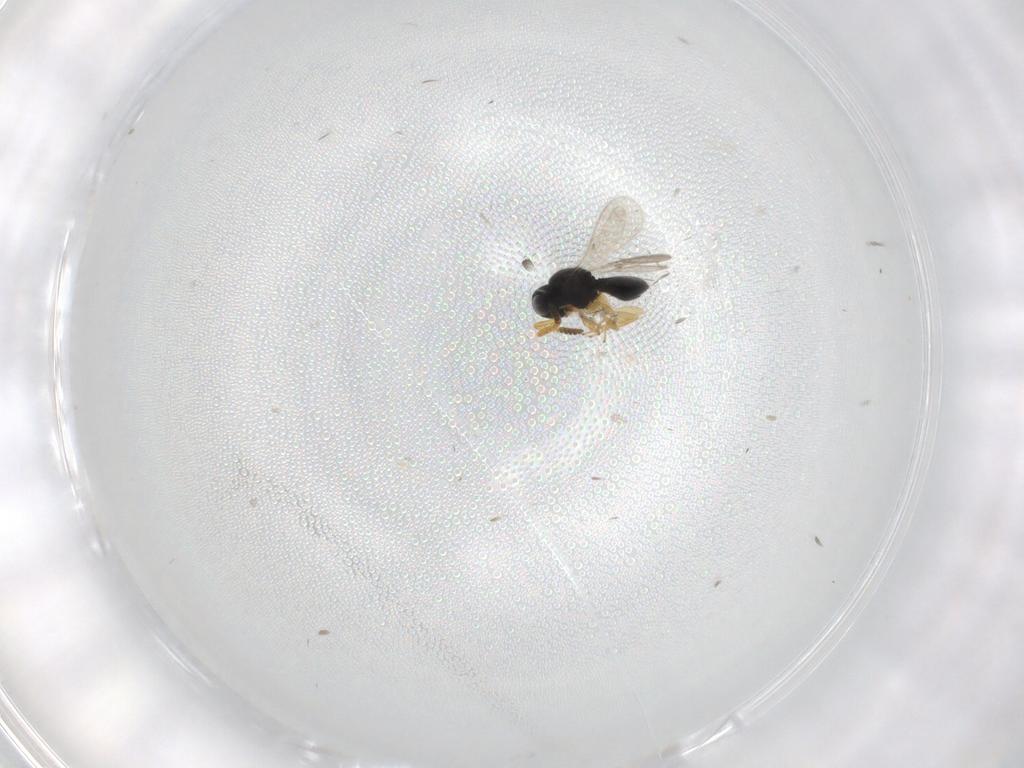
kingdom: Animalia
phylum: Arthropoda
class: Insecta
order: Hymenoptera
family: Scelionidae
